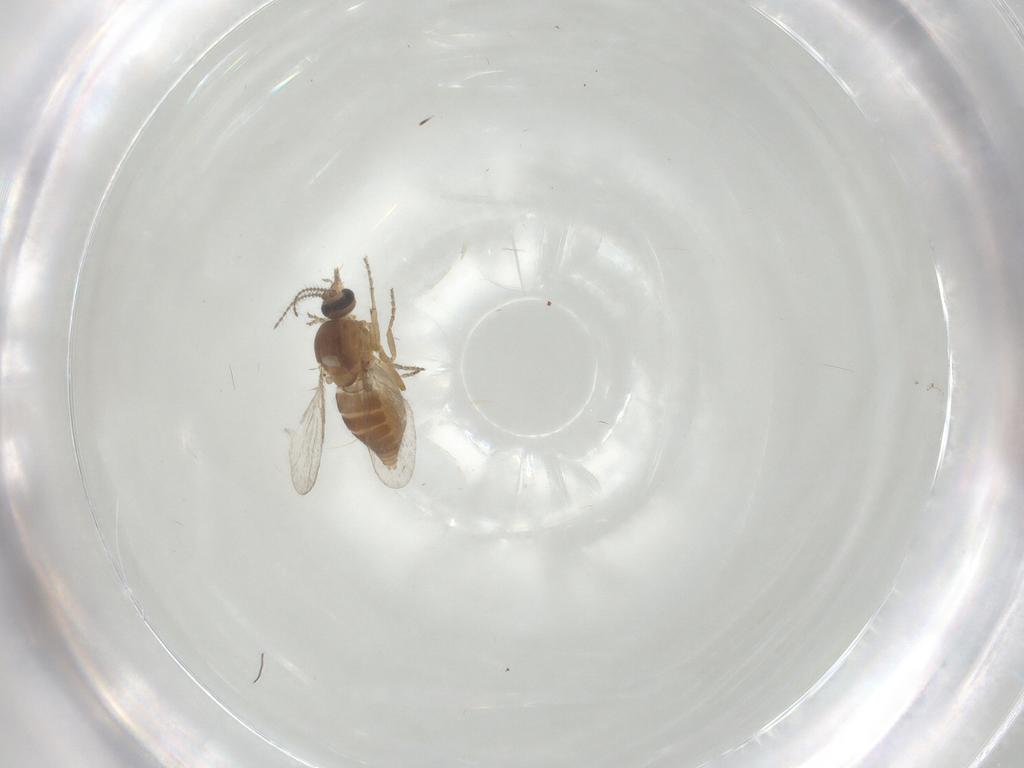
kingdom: Animalia
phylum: Arthropoda
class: Insecta
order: Diptera
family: Ceratopogonidae
